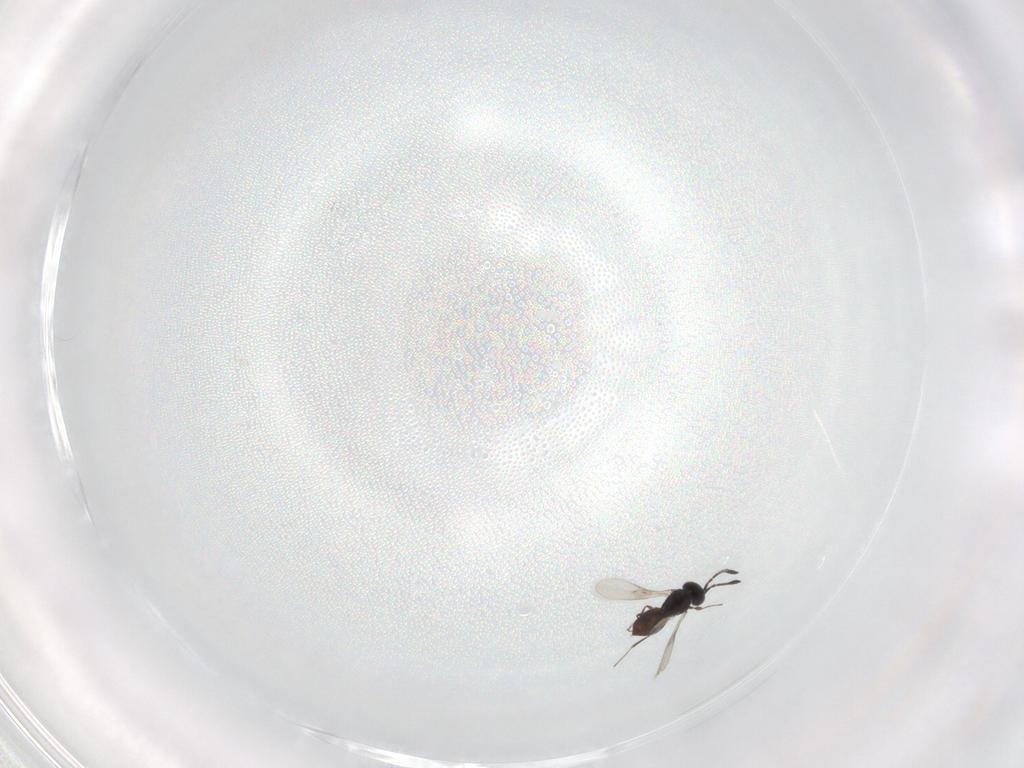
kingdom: Animalia
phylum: Arthropoda
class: Insecta
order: Hymenoptera
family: Scelionidae
